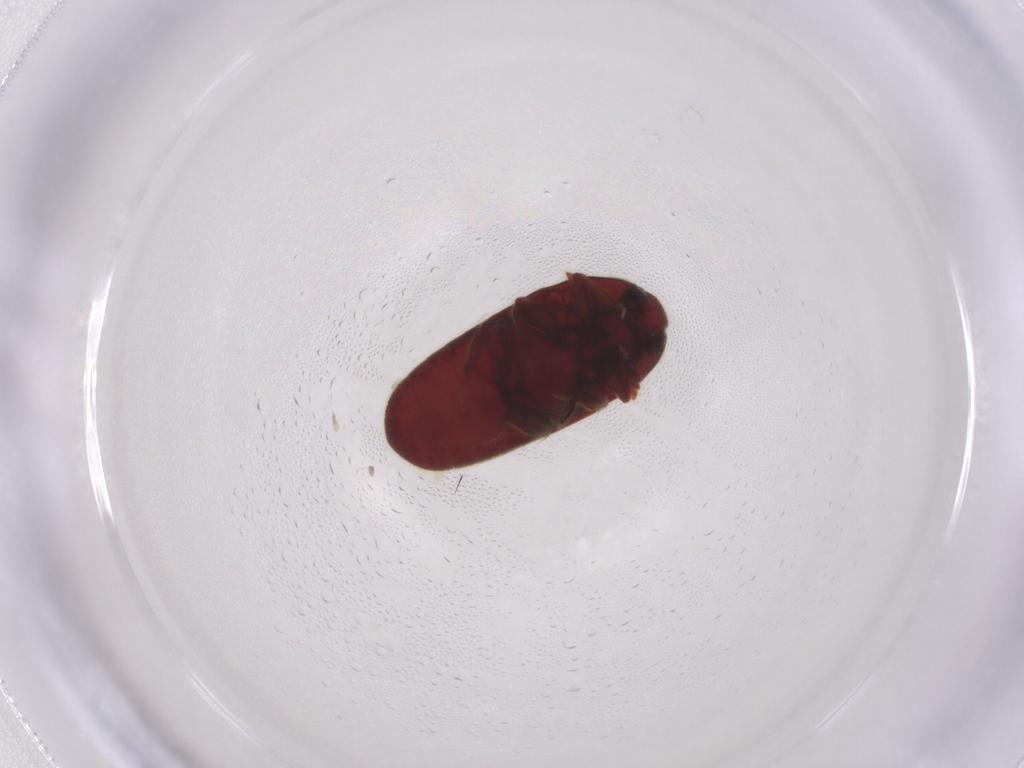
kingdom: Animalia
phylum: Arthropoda
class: Insecta
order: Coleoptera
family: Throscidae
